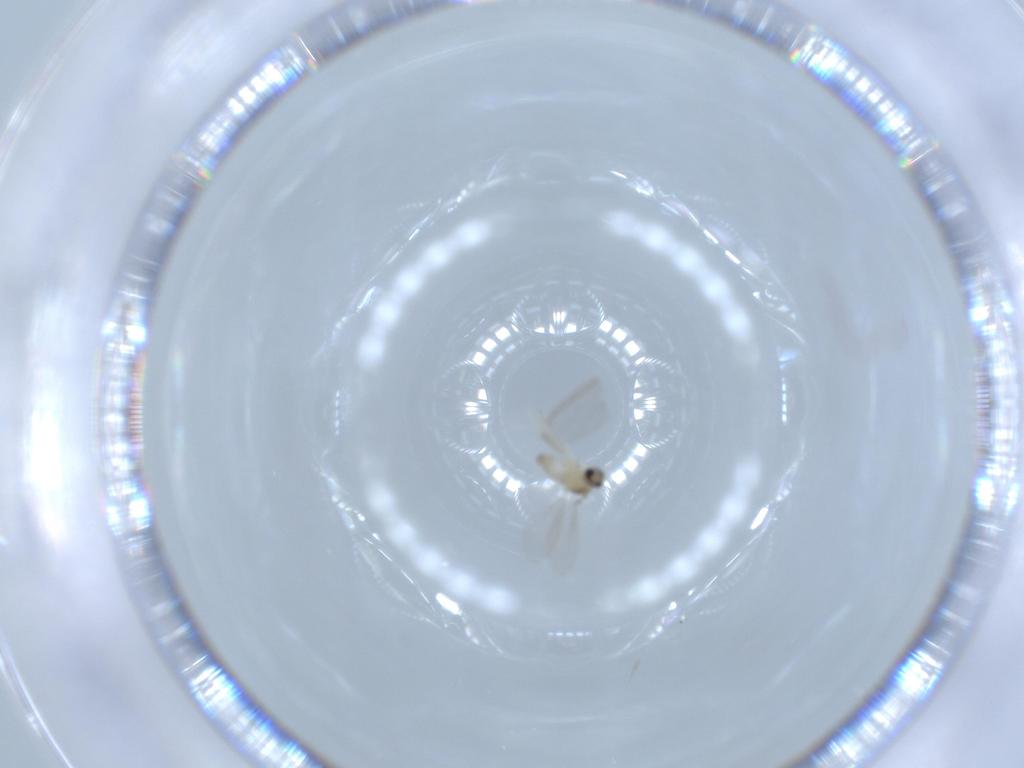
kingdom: Animalia
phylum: Arthropoda
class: Insecta
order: Diptera
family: Cecidomyiidae
